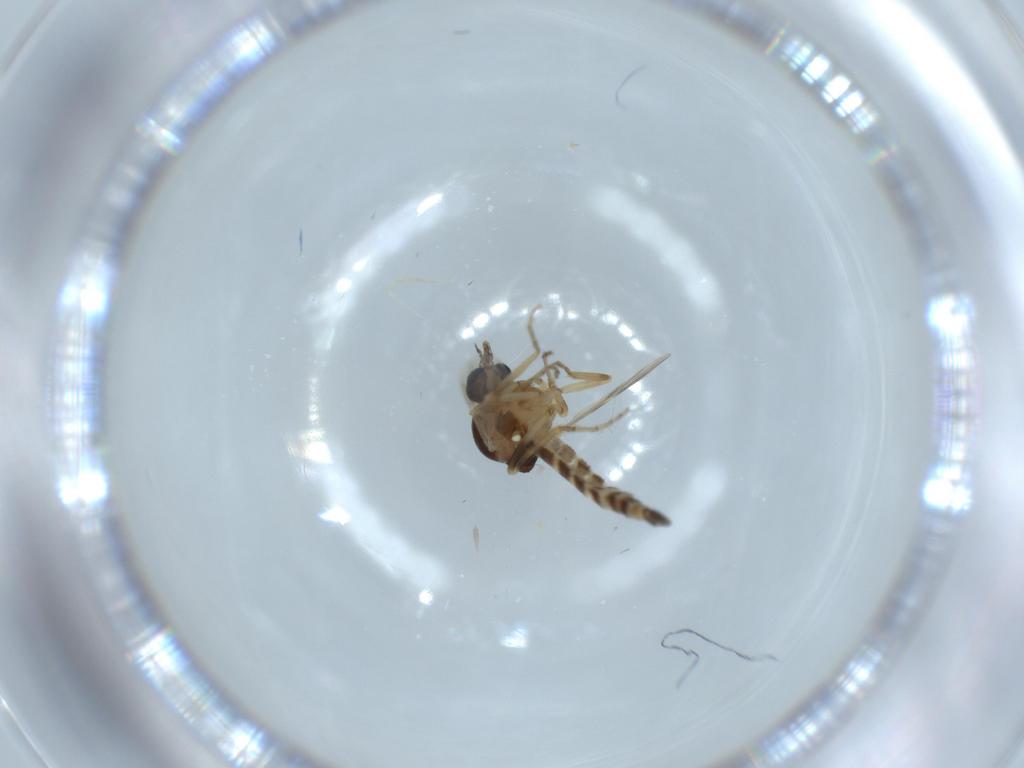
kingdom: Animalia
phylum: Arthropoda
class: Insecta
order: Diptera
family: Ceratopogonidae
